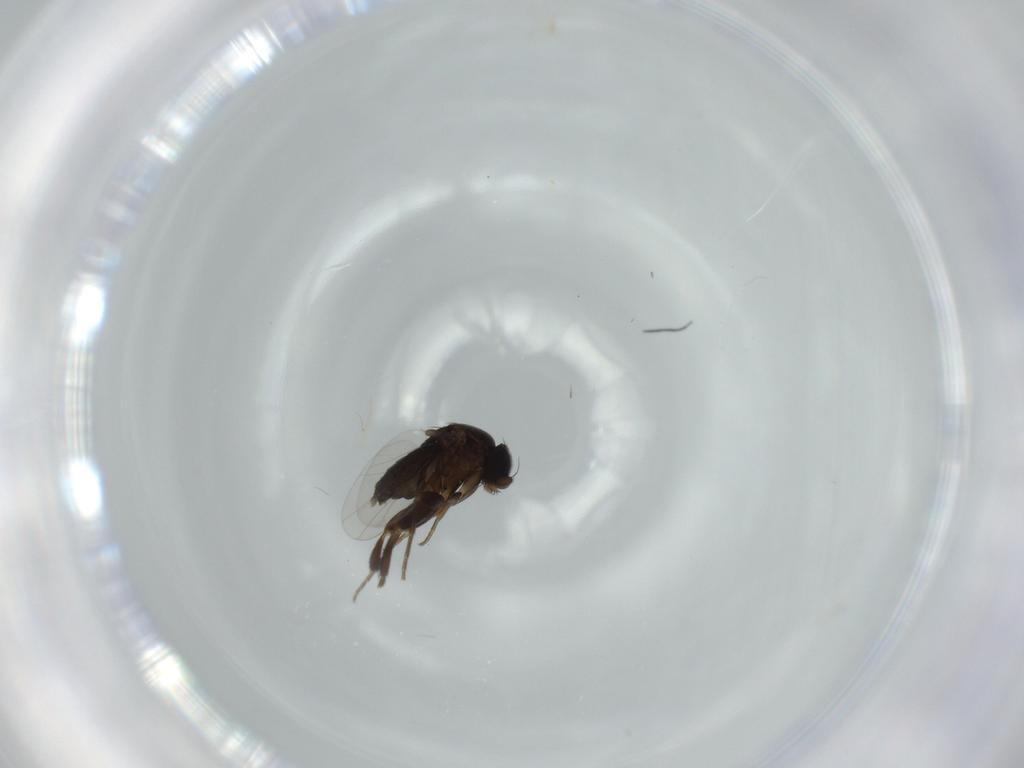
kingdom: Animalia
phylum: Arthropoda
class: Insecta
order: Diptera
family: Phoridae
